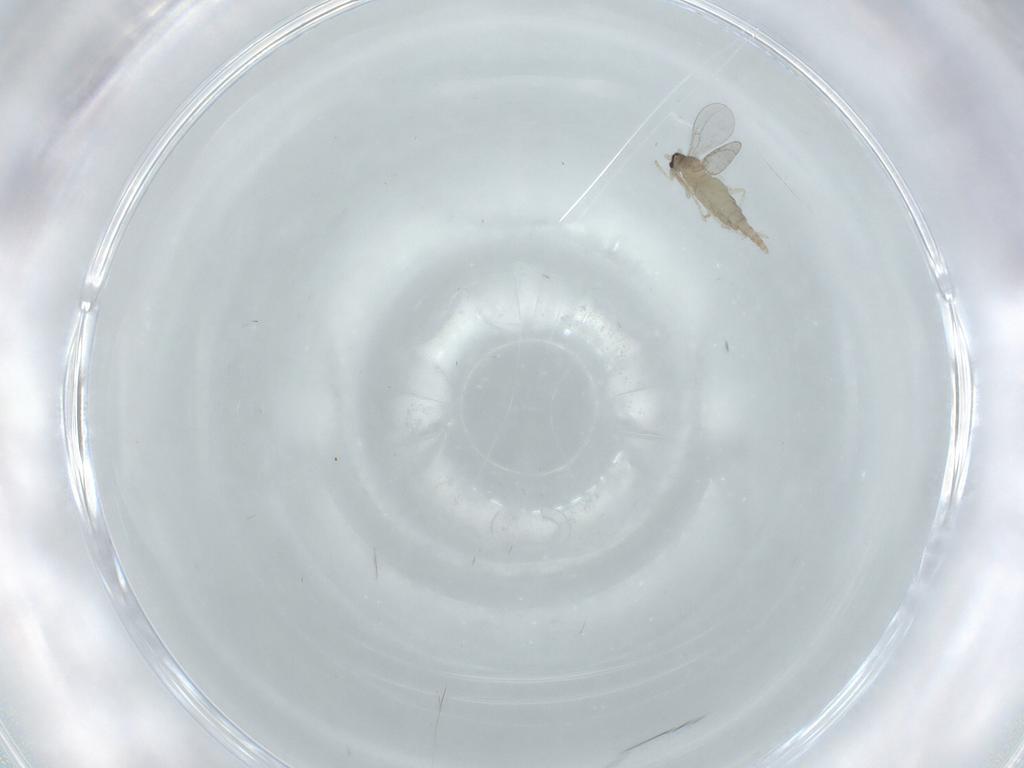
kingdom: Animalia
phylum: Arthropoda
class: Insecta
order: Diptera
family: Cecidomyiidae
